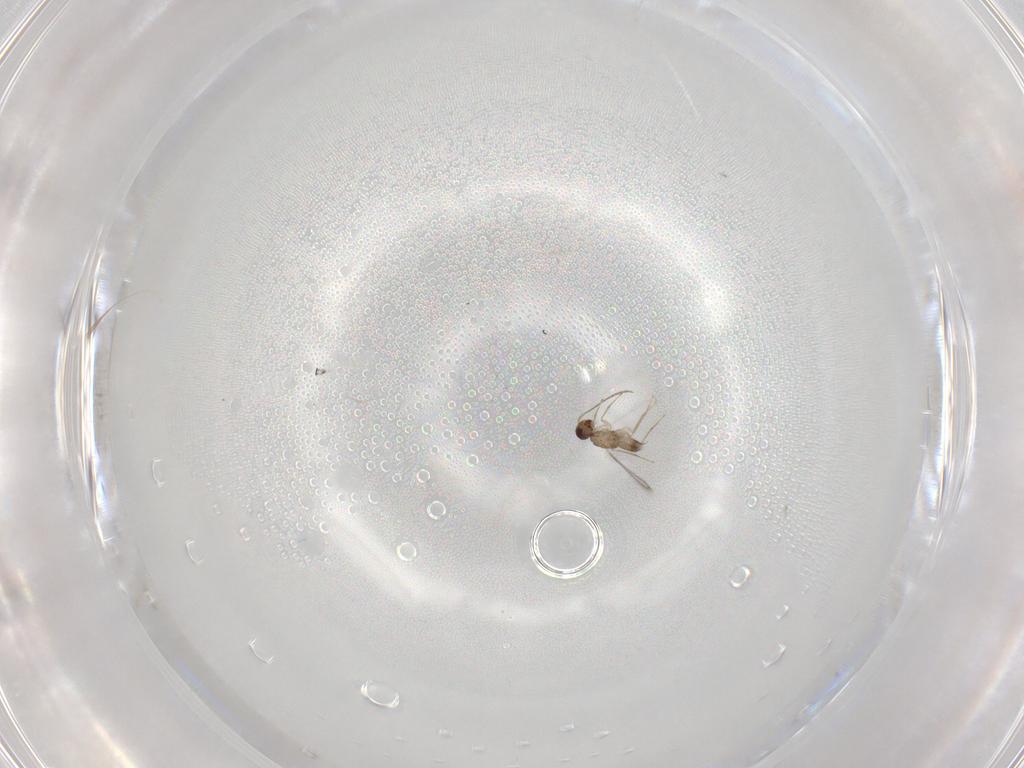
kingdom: Animalia
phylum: Arthropoda
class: Insecta
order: Hymenoptera
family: Mymaridae
